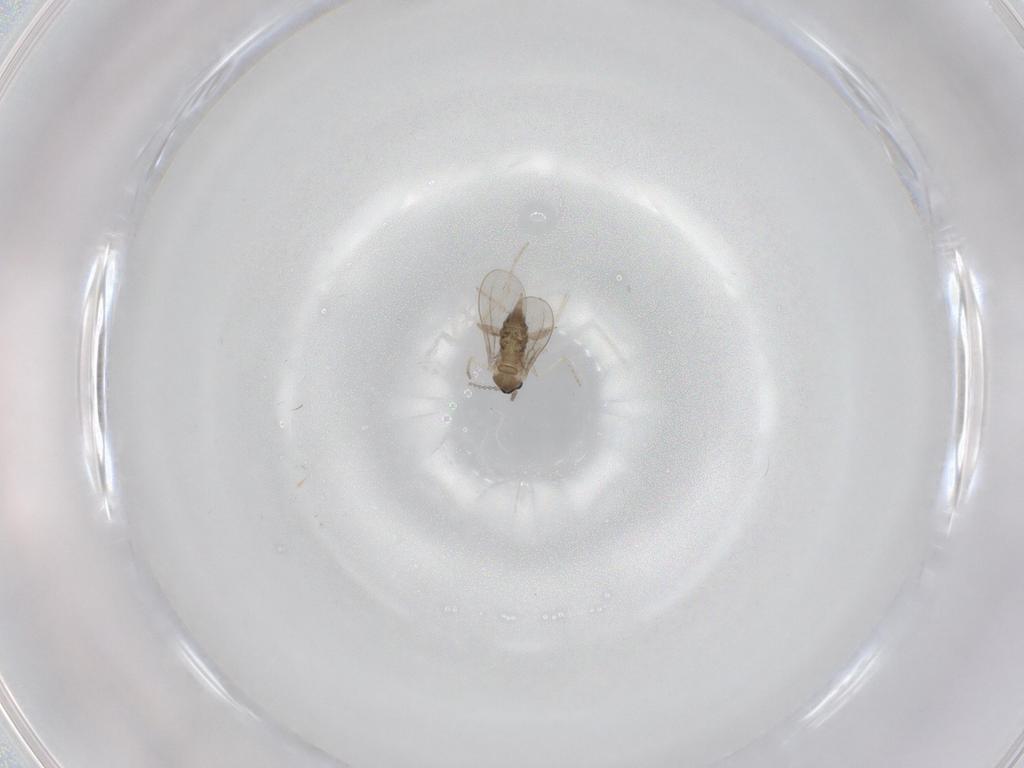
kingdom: Animalia
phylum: Arthropoda
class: Insecta
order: Diptera
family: Cecidomyiidae
